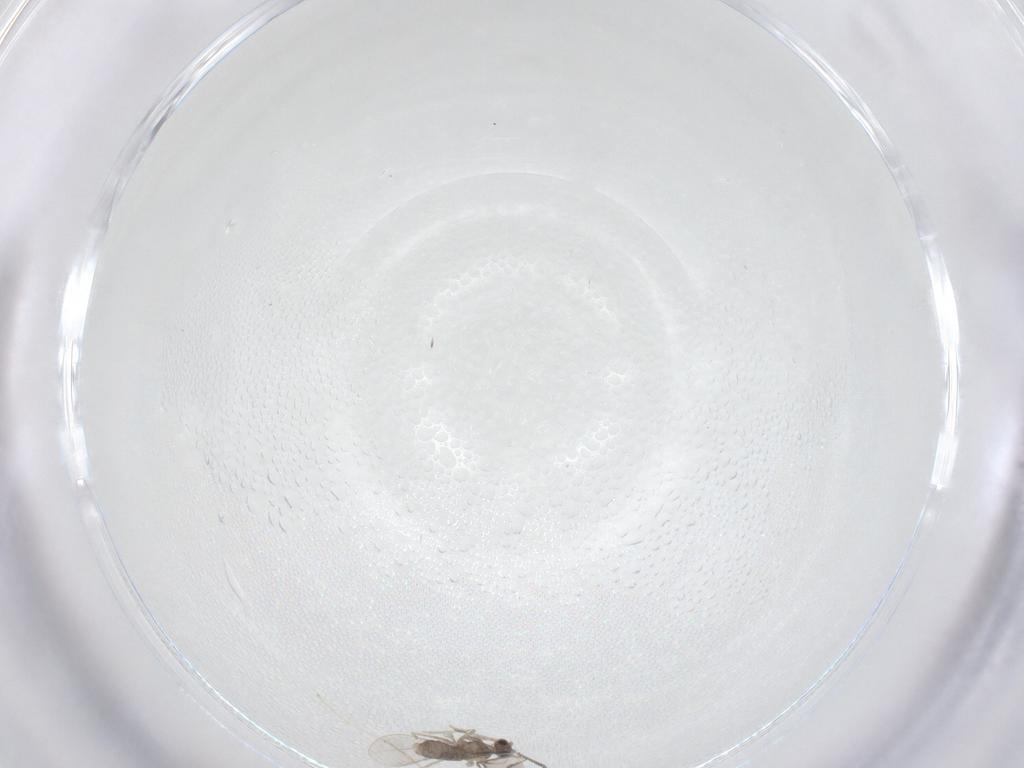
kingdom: Animalia
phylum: Arthropoda
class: Insecta
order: Diptera
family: Cecidomyiidae
